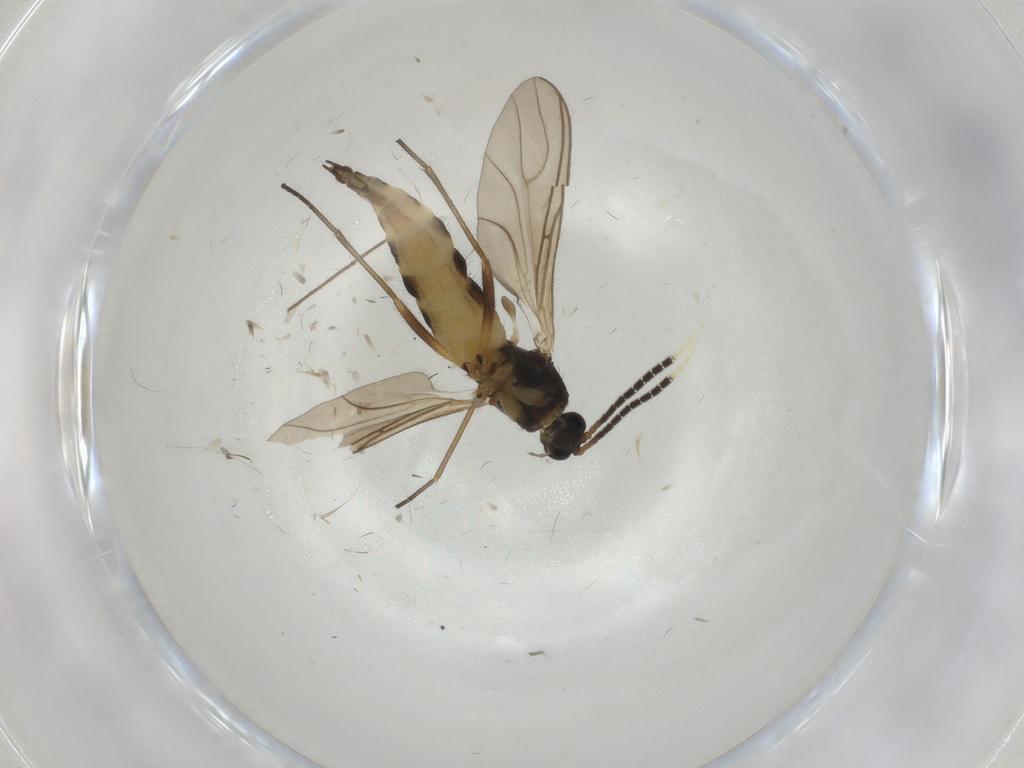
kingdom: Animalia
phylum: Arthropoda
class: Insecta
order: Diptera
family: Sciaridae
